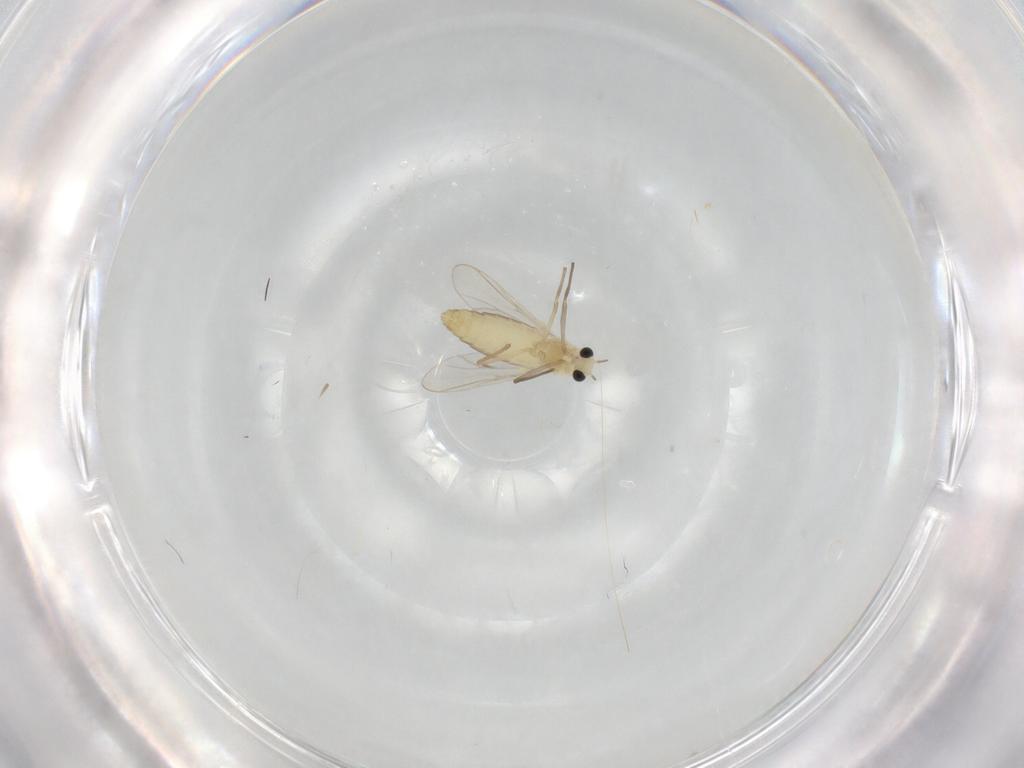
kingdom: Animalia
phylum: Arthropoda
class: Insecta
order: Diptera
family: Chironomidae
